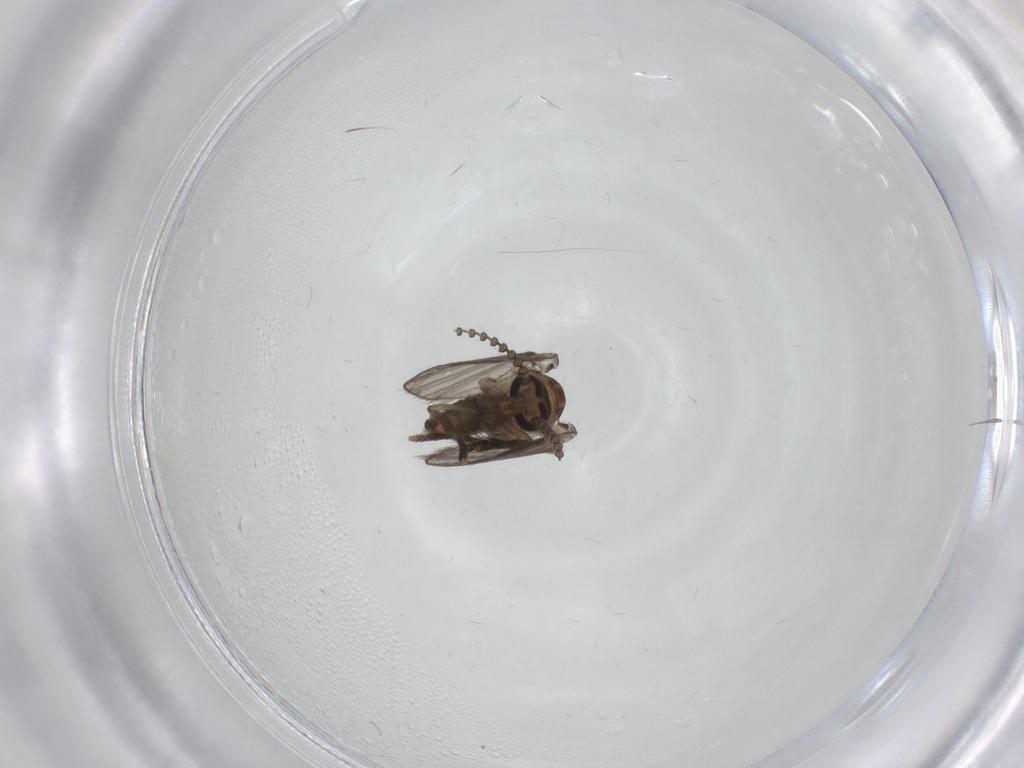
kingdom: Animalia
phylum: Arthropoda
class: Insecta
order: Diptera
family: Psychodidae
